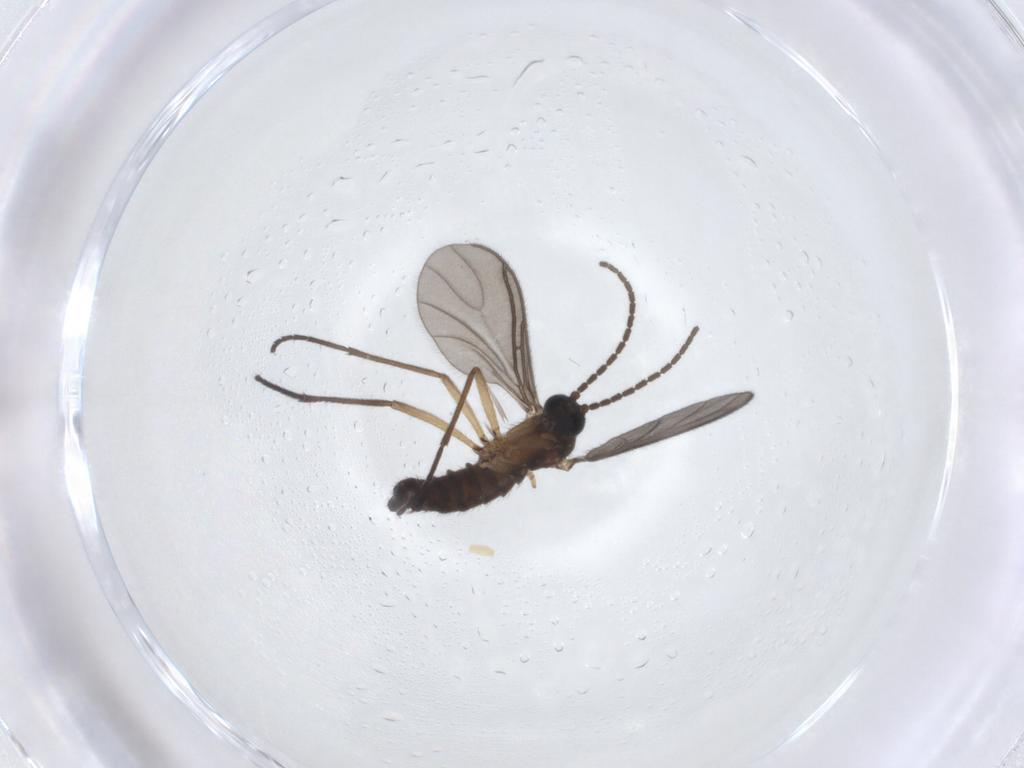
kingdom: Animalia
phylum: Arthropoda
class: Insecta
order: Diptera
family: Sciaridae
